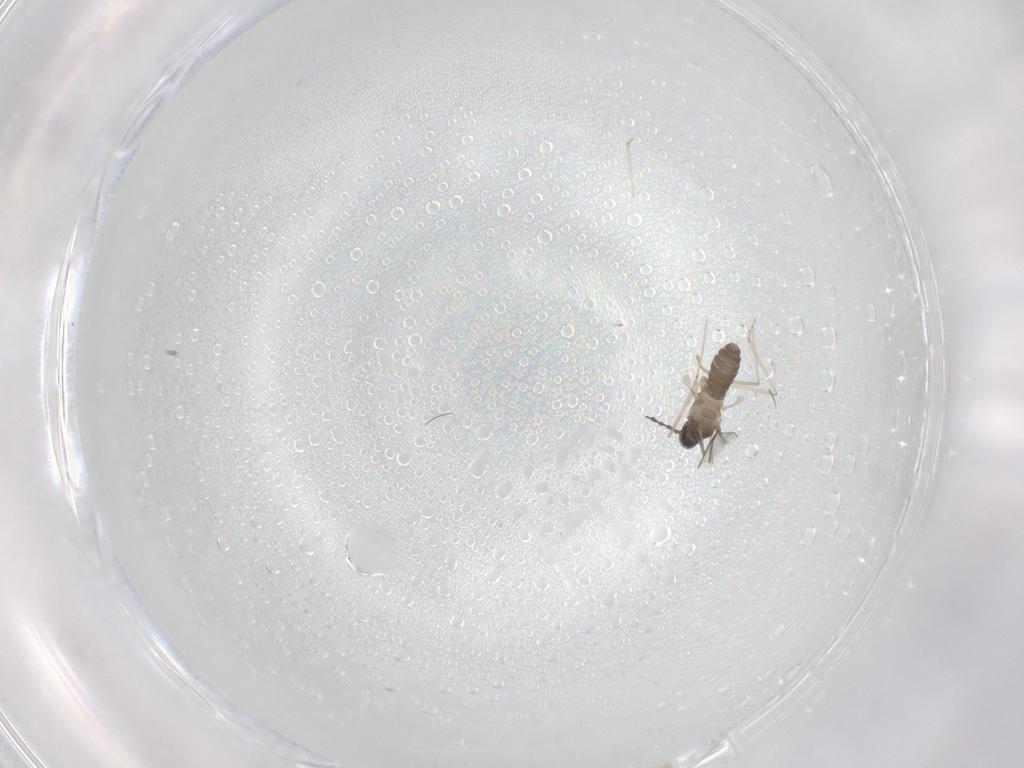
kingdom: Animalia
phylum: Arthropoda
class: Insecta
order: Diptera
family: Cecidomyiidae
